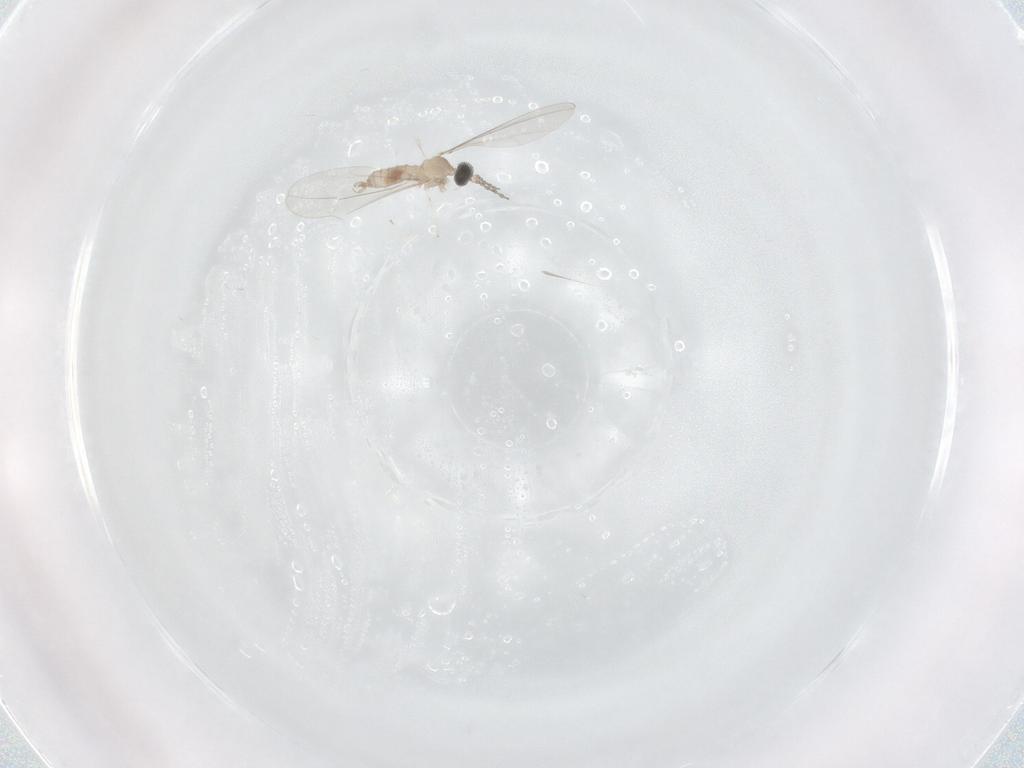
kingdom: Animalia
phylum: Arthropoda
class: Insecta
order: Diptera
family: Cecidomyiidae
